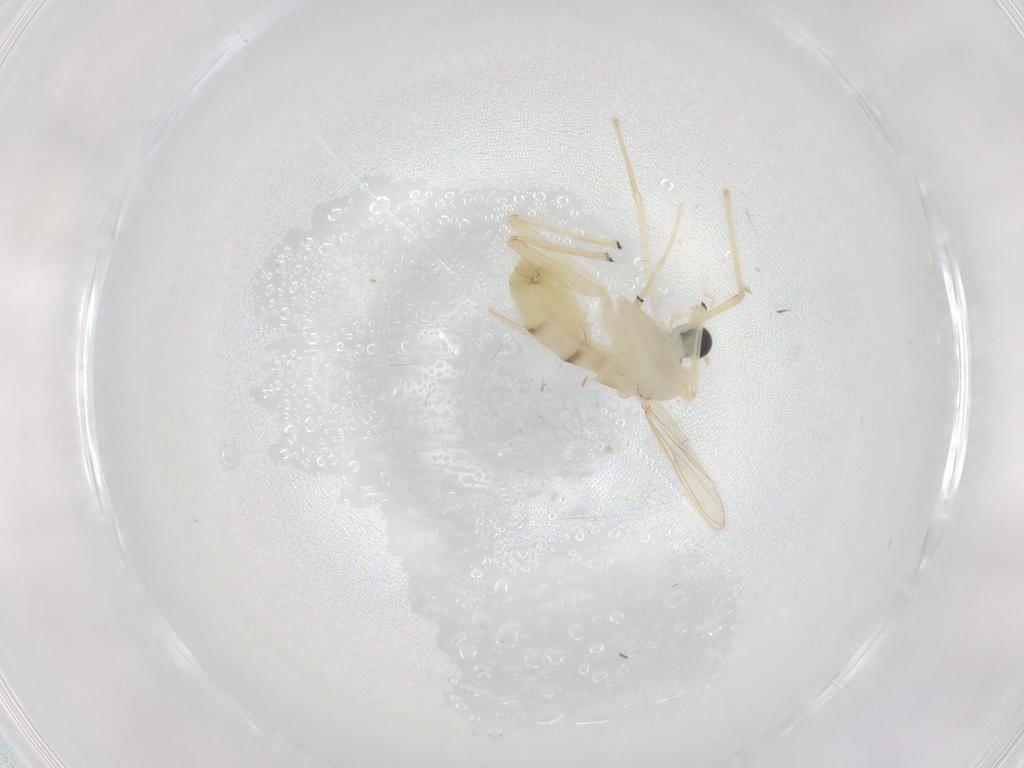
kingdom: Animalia
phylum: Arthropoda
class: Insecta
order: Diptera
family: Chironomidae
